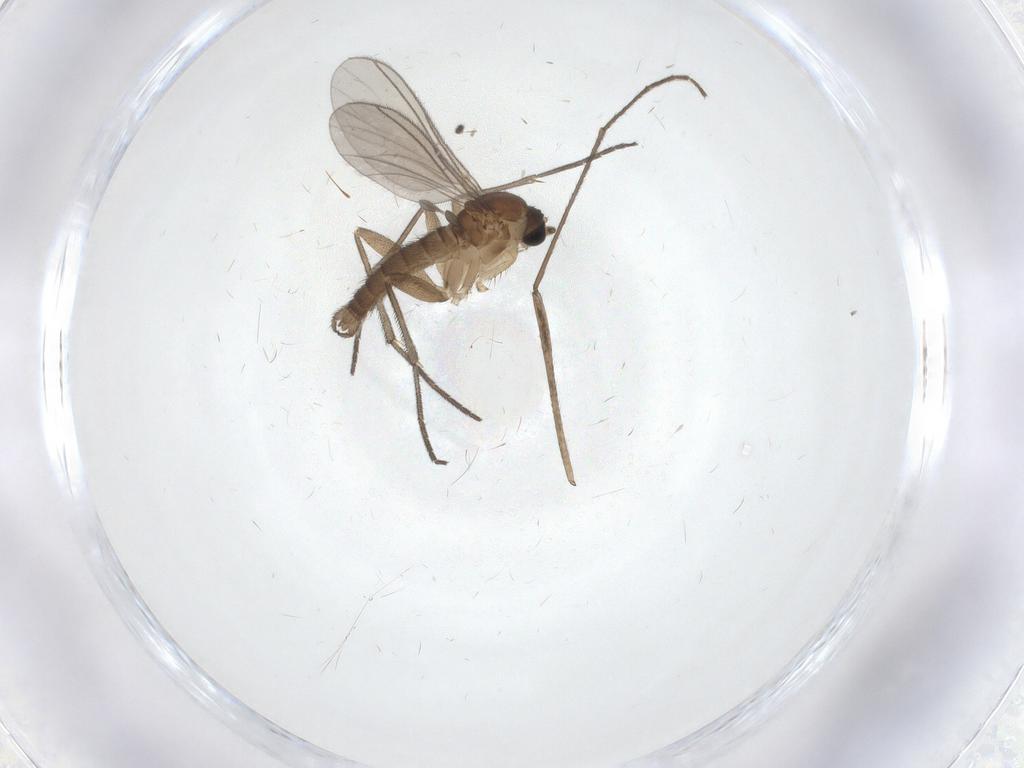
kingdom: Animalia
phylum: Arthropoda
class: Insecta
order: Diptera
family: Sciaridae
